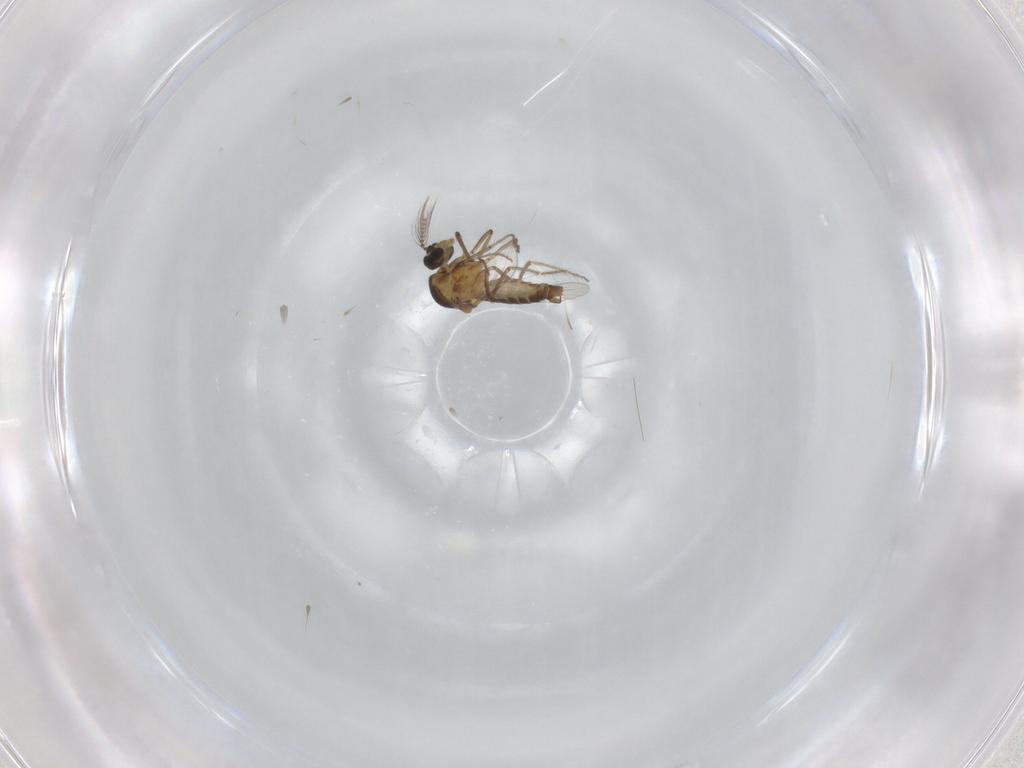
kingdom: Animalia
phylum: Arthropoda
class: Insecta
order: Diptera
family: Ceratopogonidae
